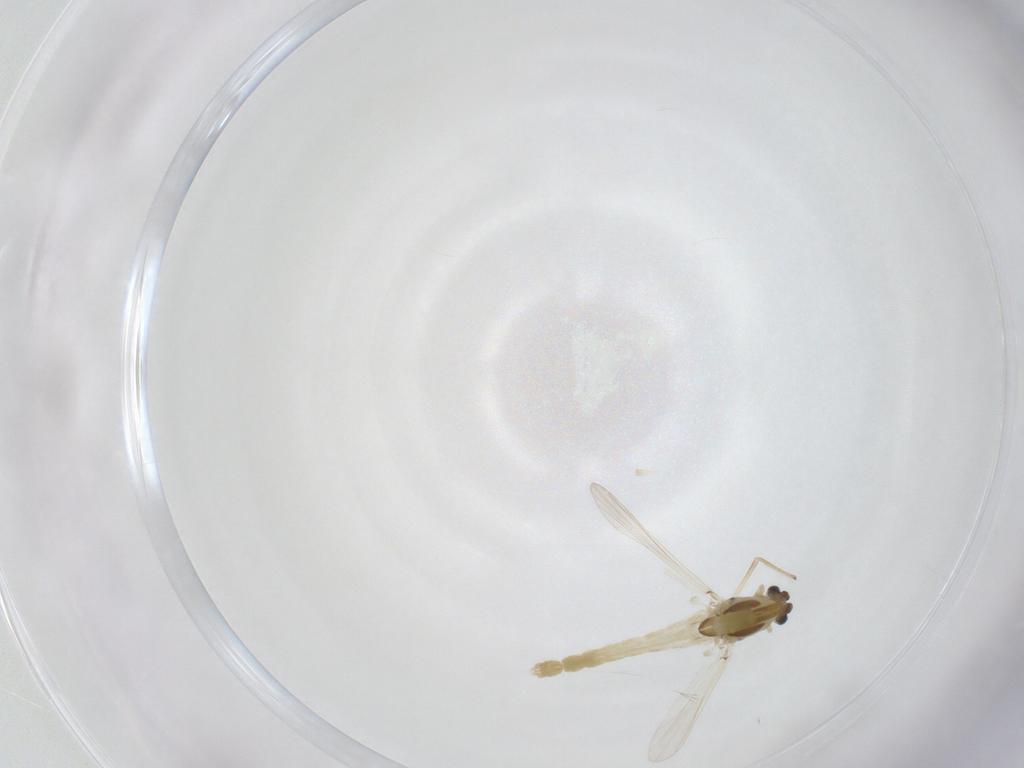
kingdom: Animalia
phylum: Arthropoda
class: Insecta
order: Diptera
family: Chironomidae
